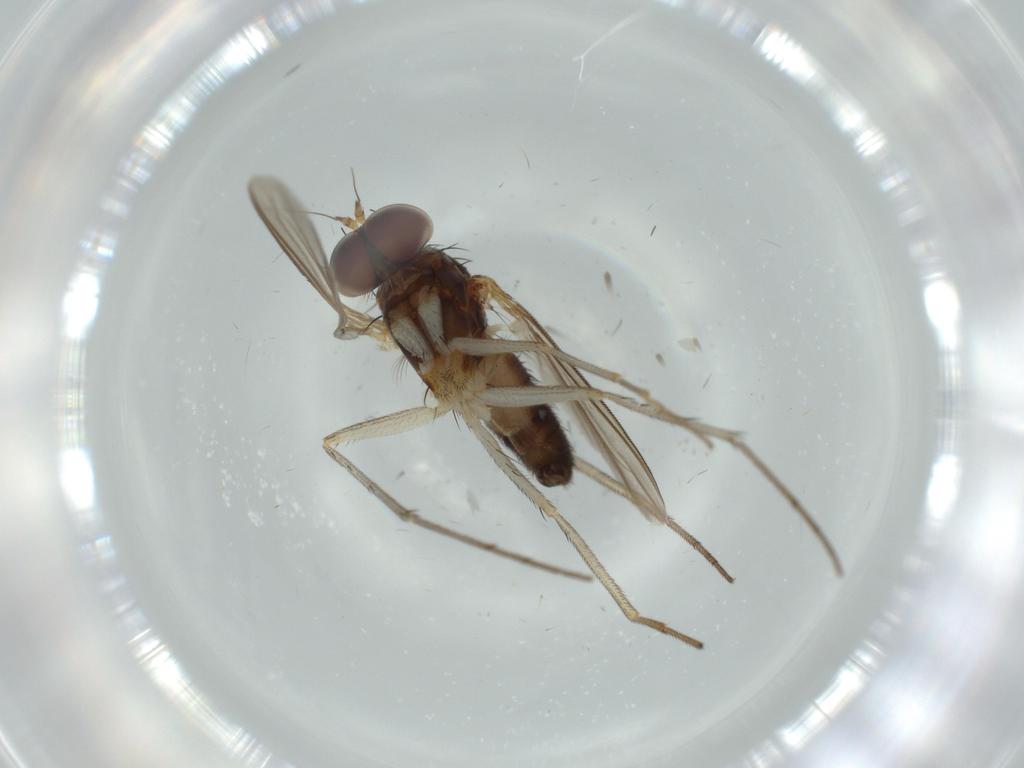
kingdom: Animalia
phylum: Arthropoda
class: Insecta
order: Diptera
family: Dolichopodidae
